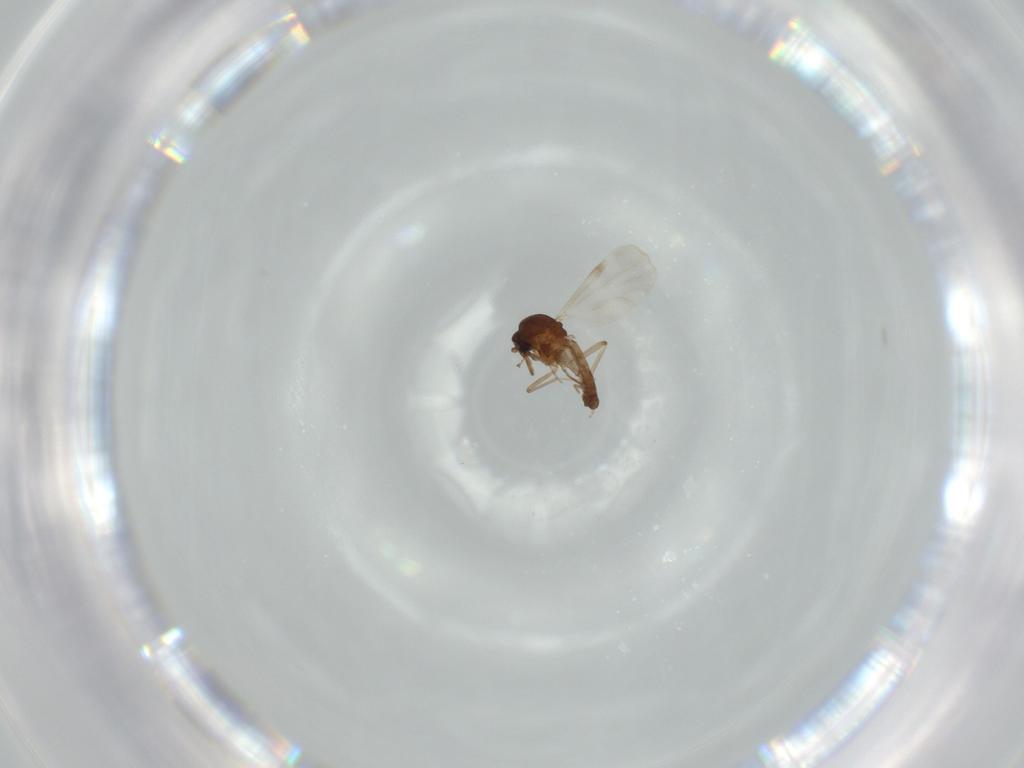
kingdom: Animalia
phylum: Arthropoda
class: Insecta
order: Diptera
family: Ceratopogonidae
